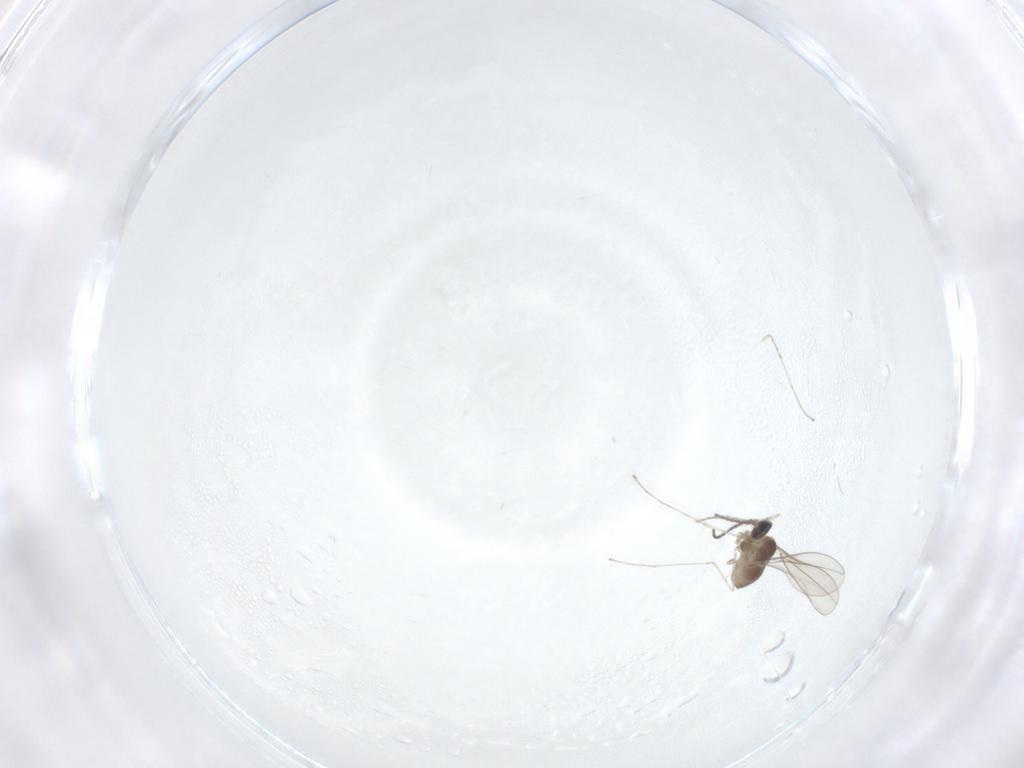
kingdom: Animalia
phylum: Arthropoda
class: Insecta
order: Diptera
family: Cecidomyiidae
